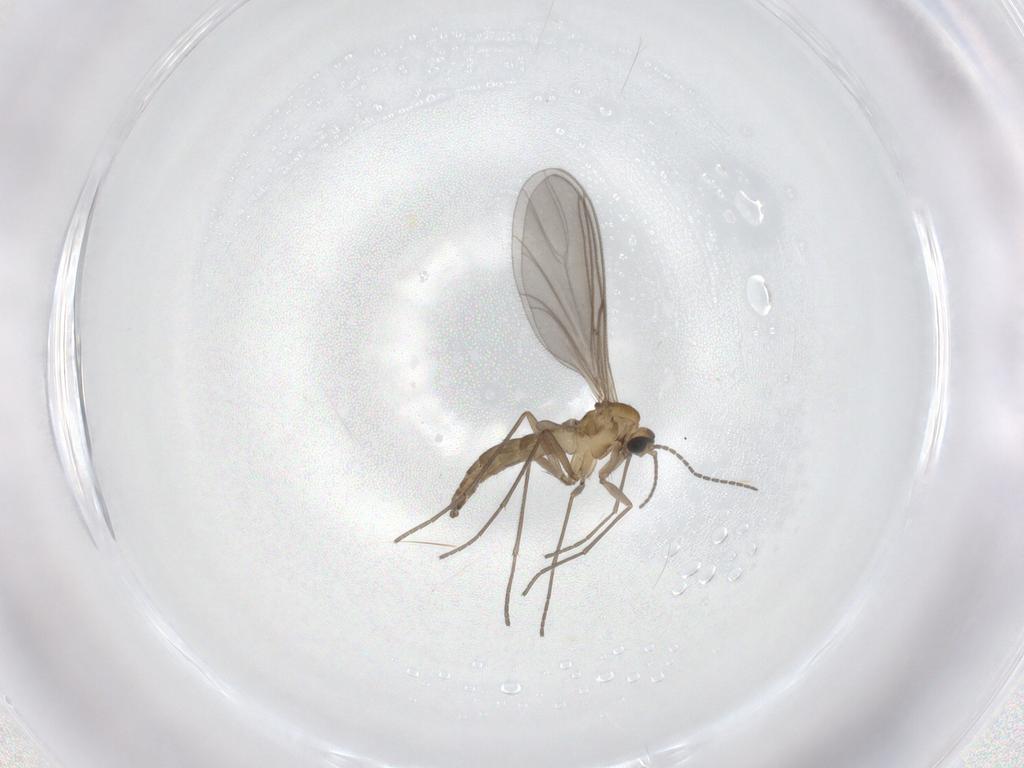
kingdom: Animalia
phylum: Arthropoda
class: Insecta
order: Diptera
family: Sciaridae
